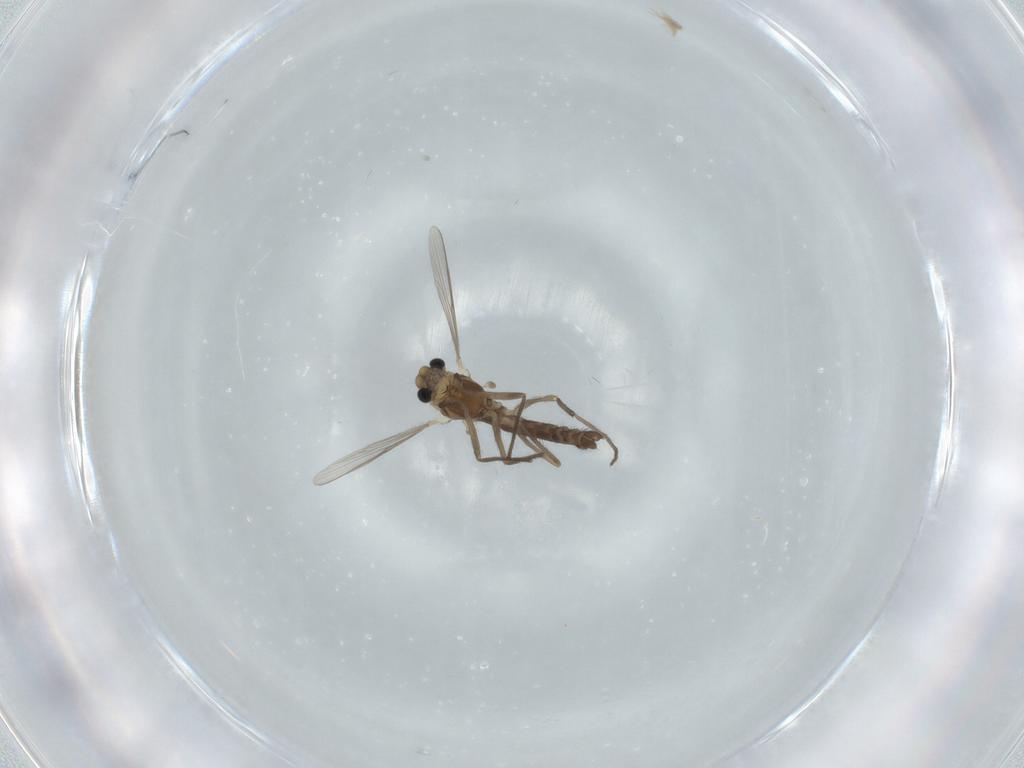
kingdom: Animalia
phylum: Arthropoda
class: Insecta
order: Diptera
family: Chironomidae
